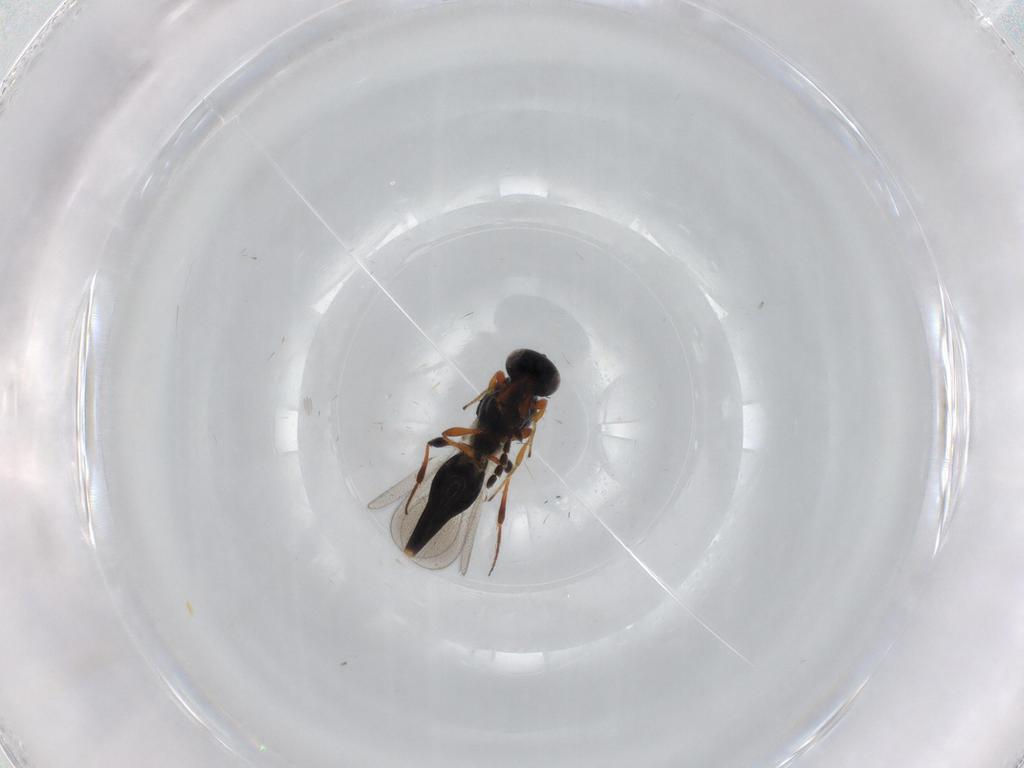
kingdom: Animalia
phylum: Arthropoda
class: Insecta
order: Hymenoptera
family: Platygastridae
